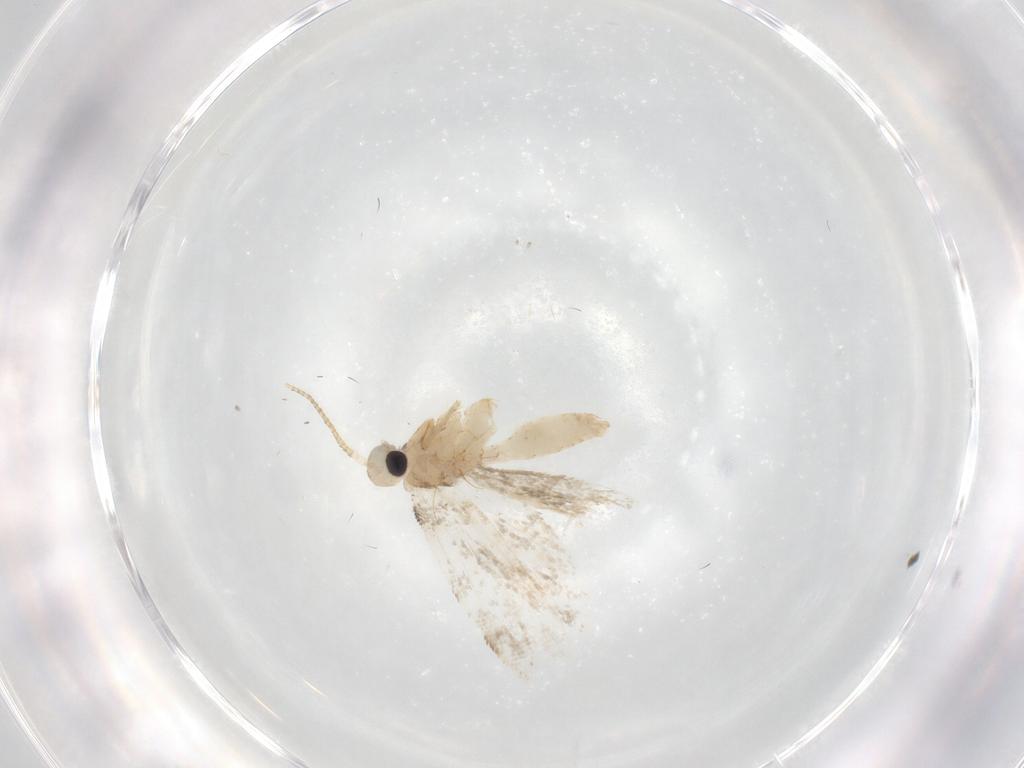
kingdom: Animalia
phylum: Arthropoda
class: Insecta
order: Lepidoptera
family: Psychidae
